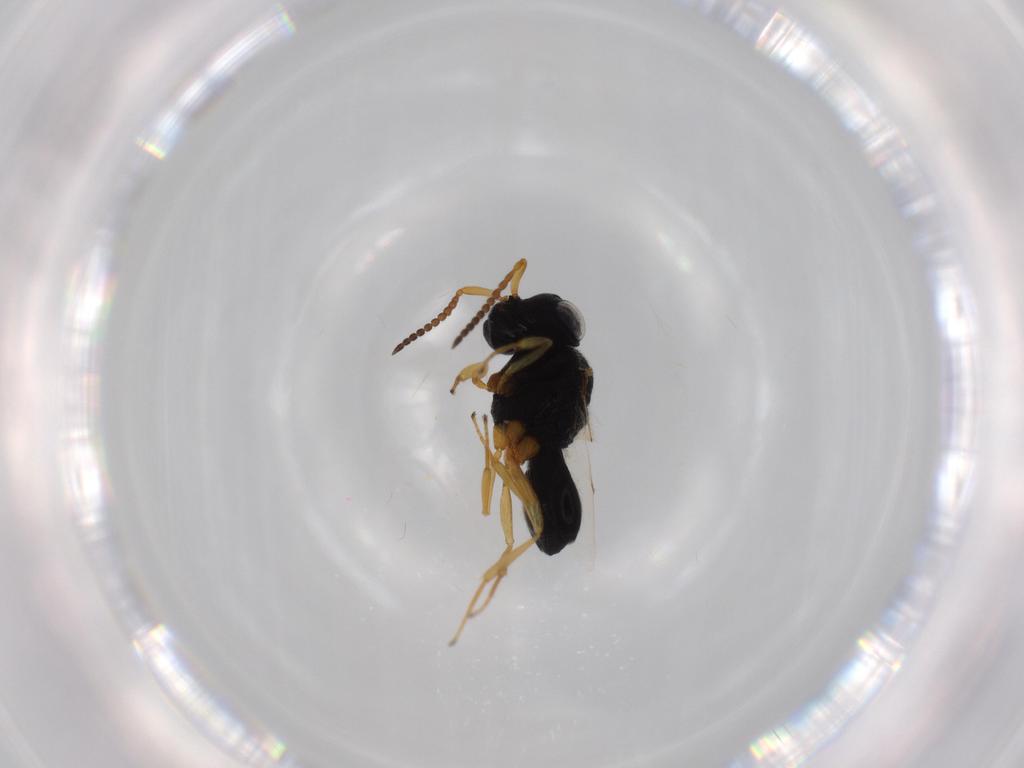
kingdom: Animalia
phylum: Arthropoda
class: Insecta
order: Hymenoptera
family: Scelionidae
